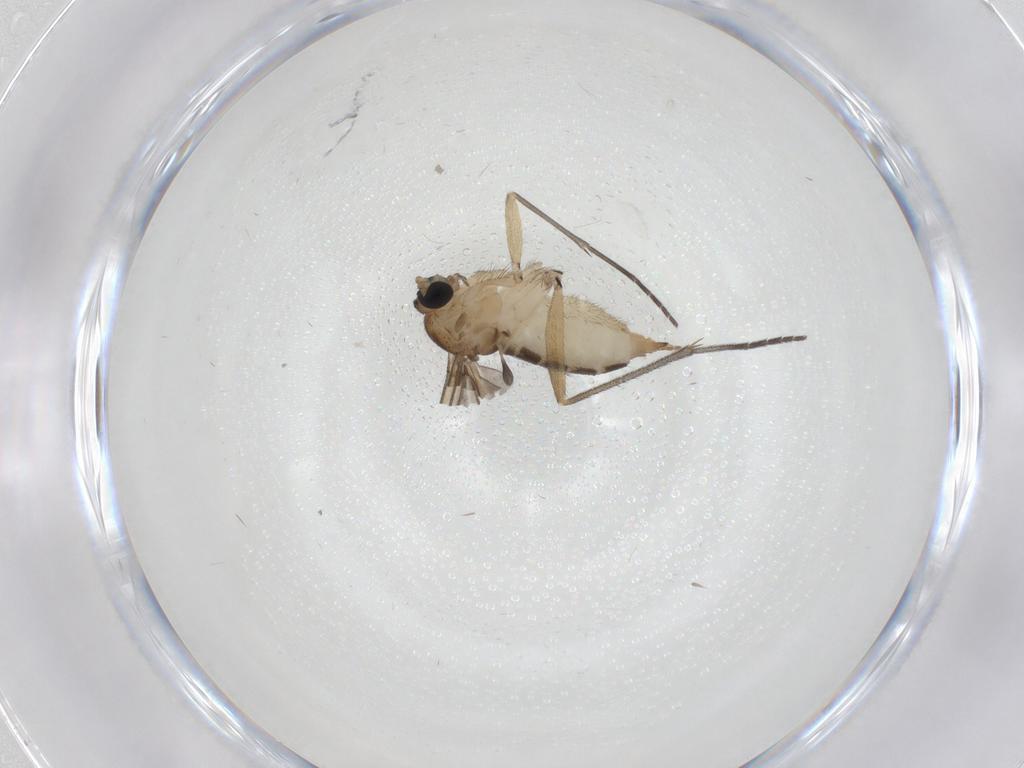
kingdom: Animalia
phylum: Arthropoda
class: Insecta
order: Diptera
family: Sciaridae
